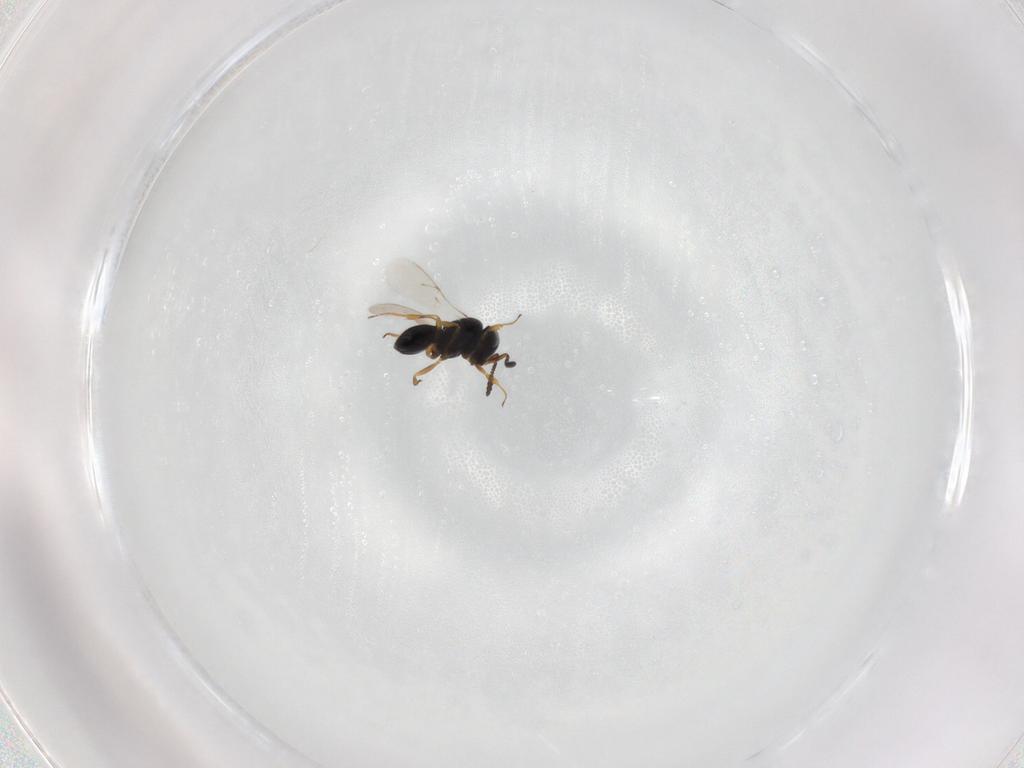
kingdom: Animalia
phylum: Arthropoda
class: Insecta
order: Hymenoptera
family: Scelionidae
